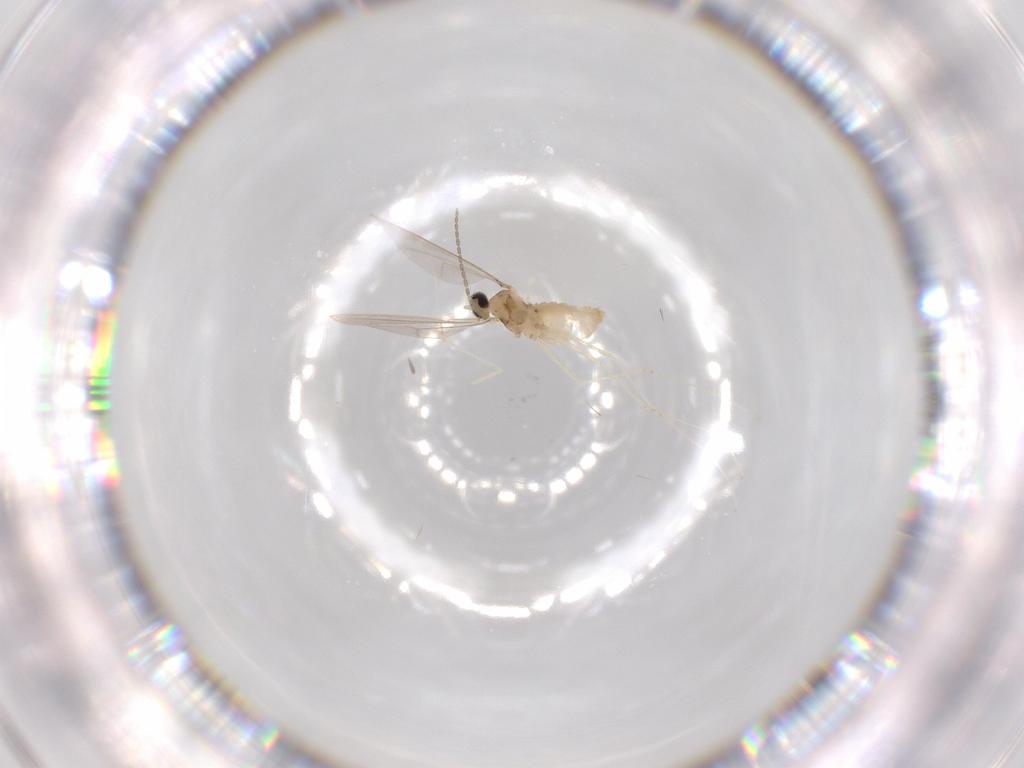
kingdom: Animalia
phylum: Arthropoda
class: Insecta
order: Diptera
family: Cecidomyiidae
